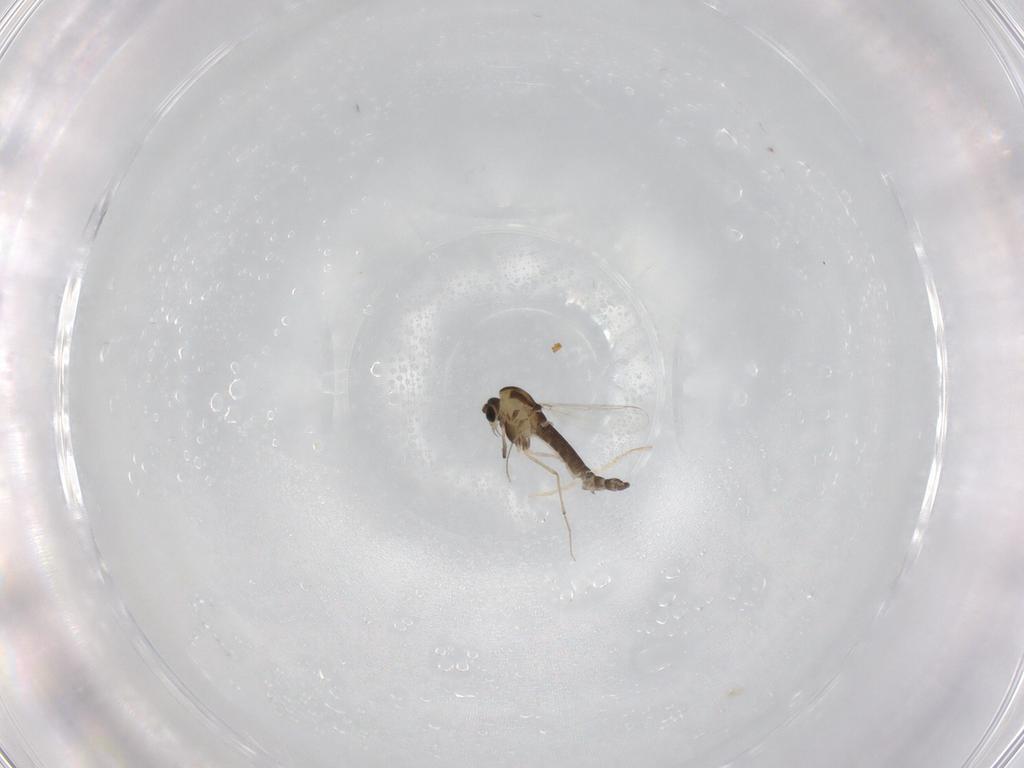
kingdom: Animalia
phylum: Arthropoda
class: Insecta
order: Diptera
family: Chironomidae
